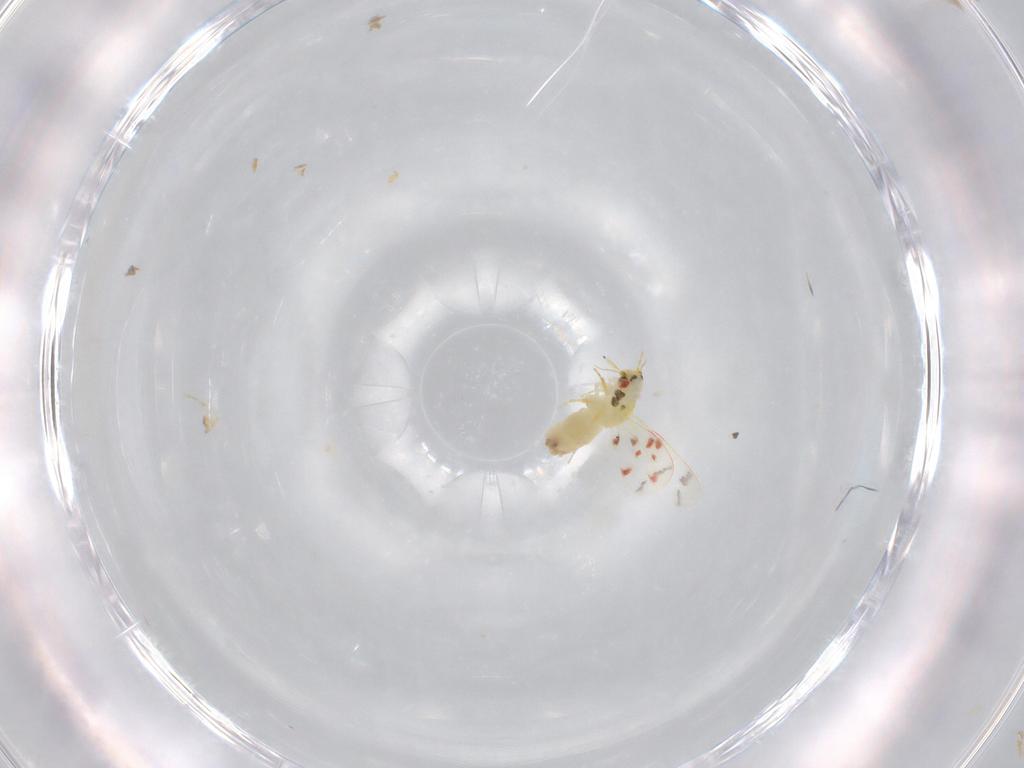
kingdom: Animalia
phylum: Arthropoda
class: Insecta
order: Hemiptera
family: Aleyrodidae
